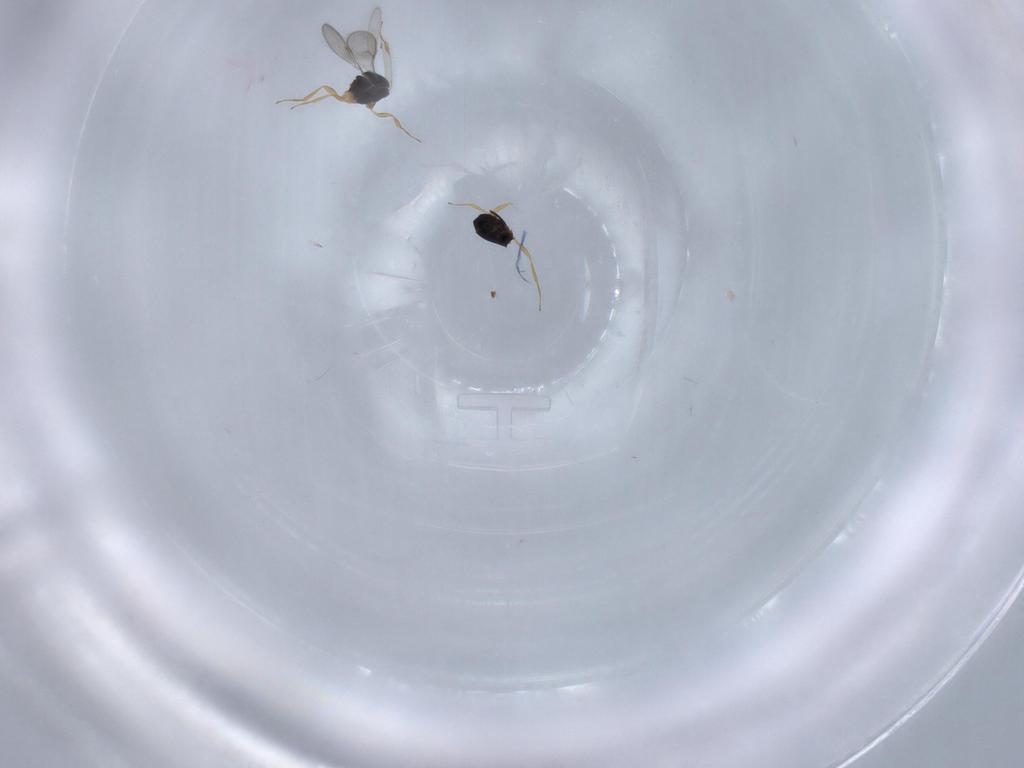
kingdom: Animalia
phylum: Arthropoda
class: Insecta
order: Hymenoptera
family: Scelionidae
